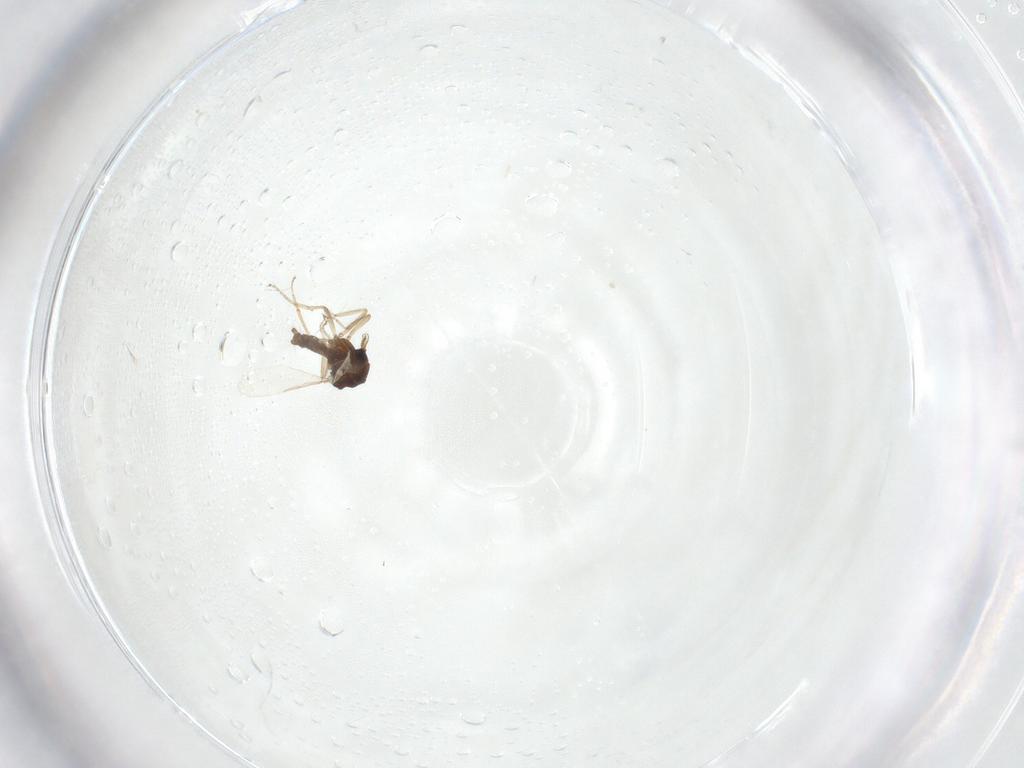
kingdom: Animalia
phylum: Arthropoda
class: Insecta
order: Diptera
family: Ceratopogonidae
